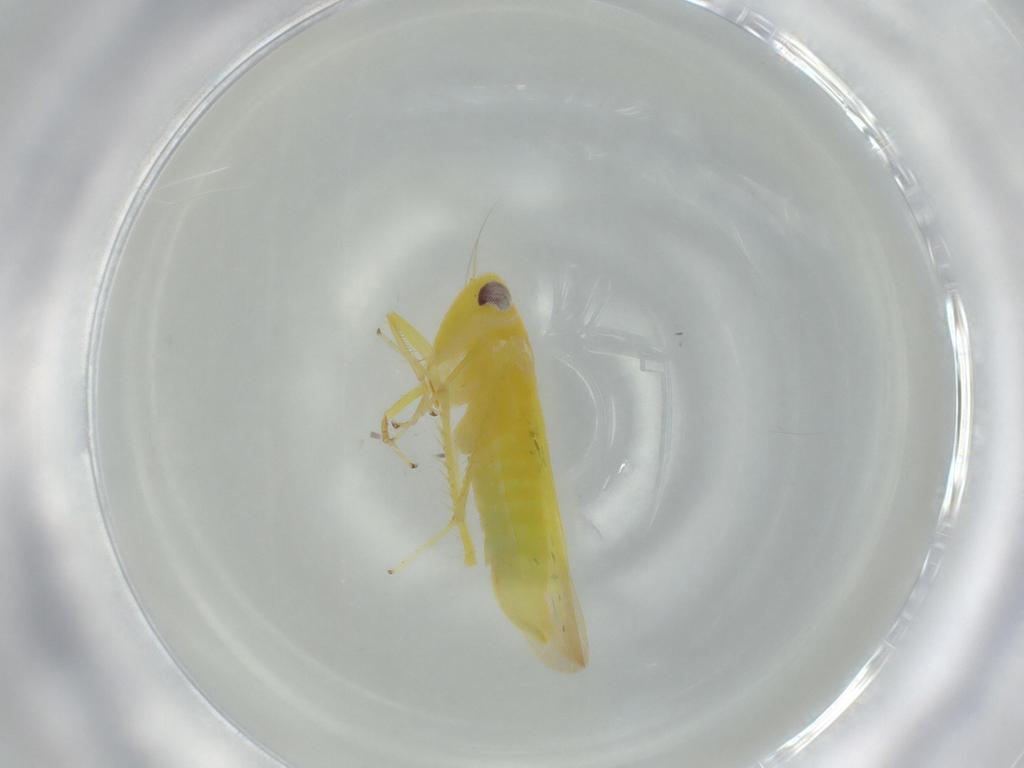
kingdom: Animalia
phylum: Arthropoda
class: Insecta
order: Hemiptera
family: Cicadellidae
